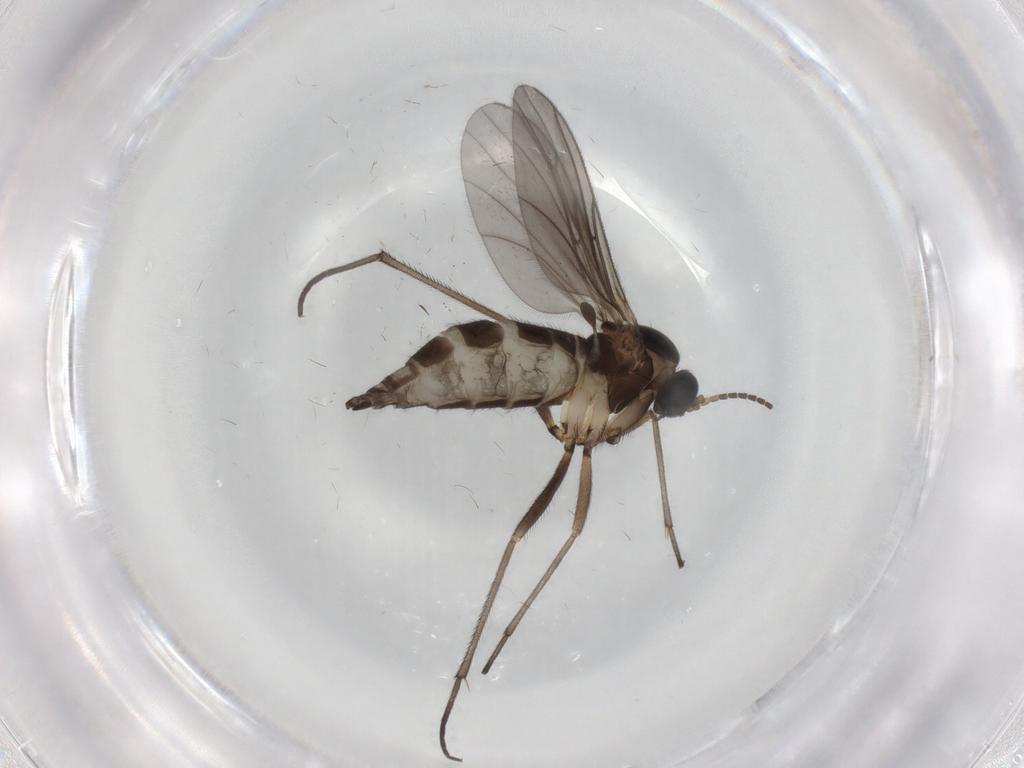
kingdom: Animalia
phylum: Arthropoda
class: Insecta
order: Diptera
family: Sciaridae
